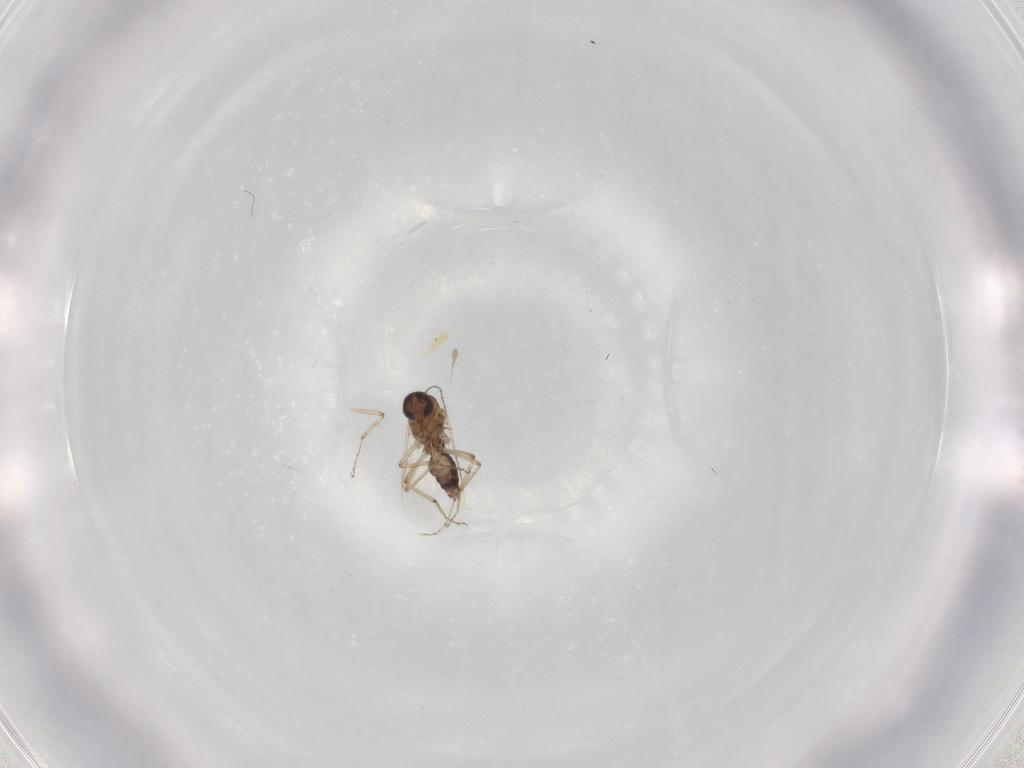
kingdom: Animalia
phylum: Arthropoda
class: Insecta
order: Diptera
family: Ceratopogonidae
